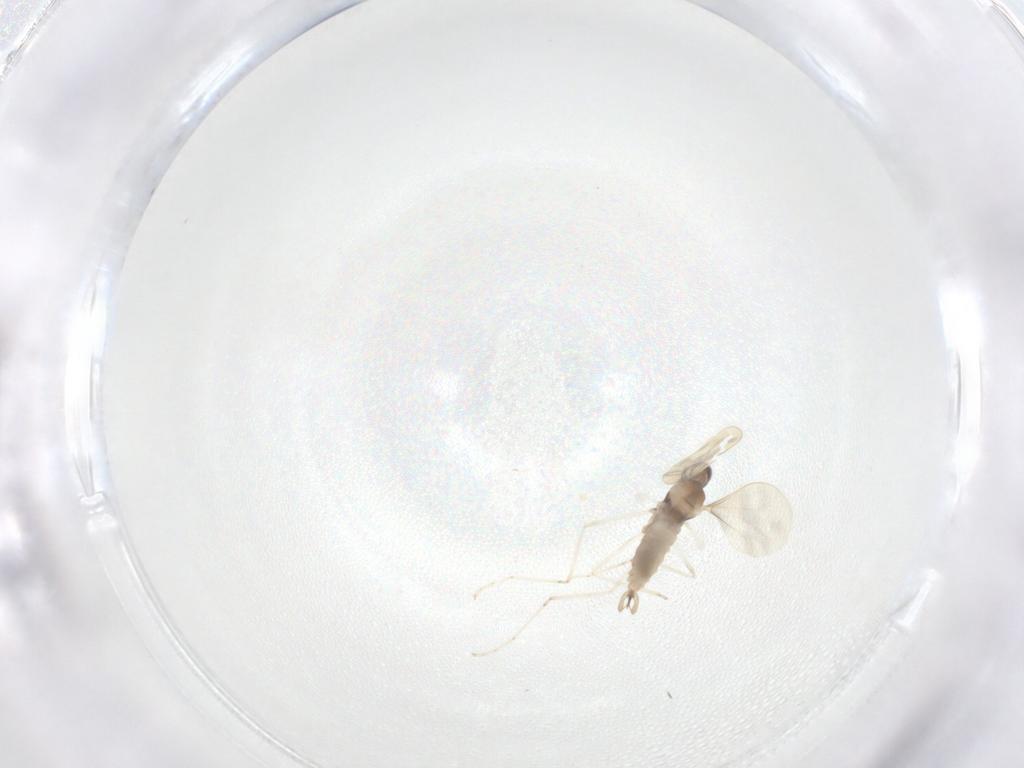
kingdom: Animalia
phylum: Arthropoda
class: Insecta
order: Diptera
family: Cecidomyiidae
